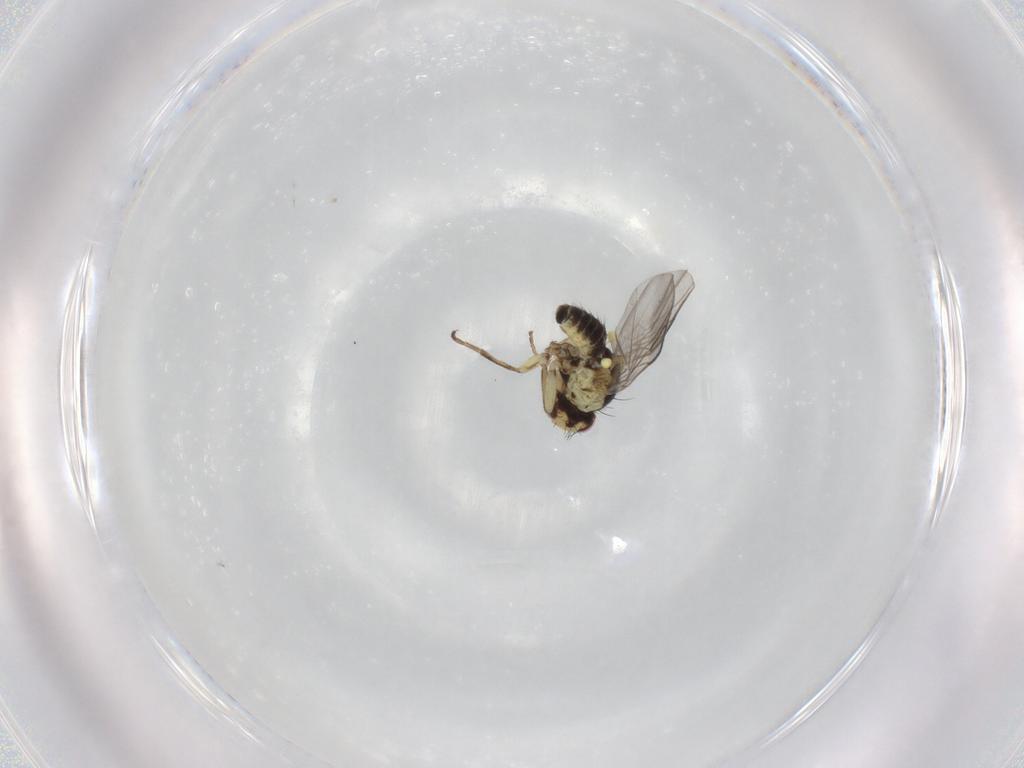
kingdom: Animalia
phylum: Arthropoda
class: Insecta
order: Diptera
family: Agromyzidae
